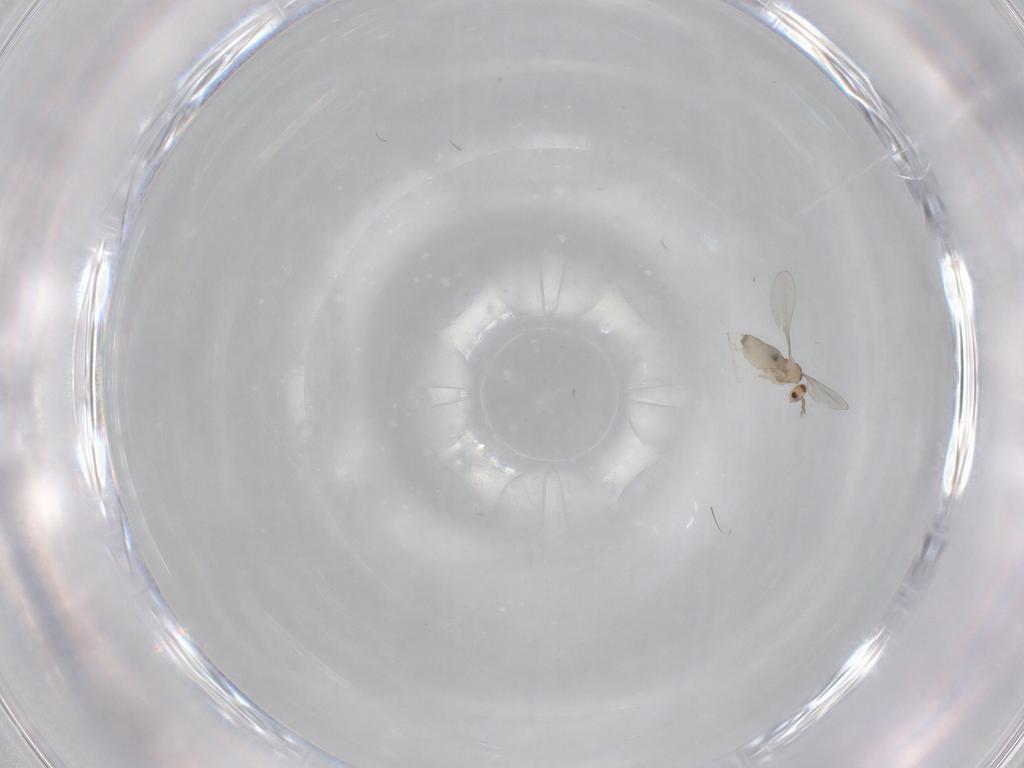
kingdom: Animalia
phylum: Arthropoda
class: Insecta
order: Diptera
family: Cecidomyiidae
